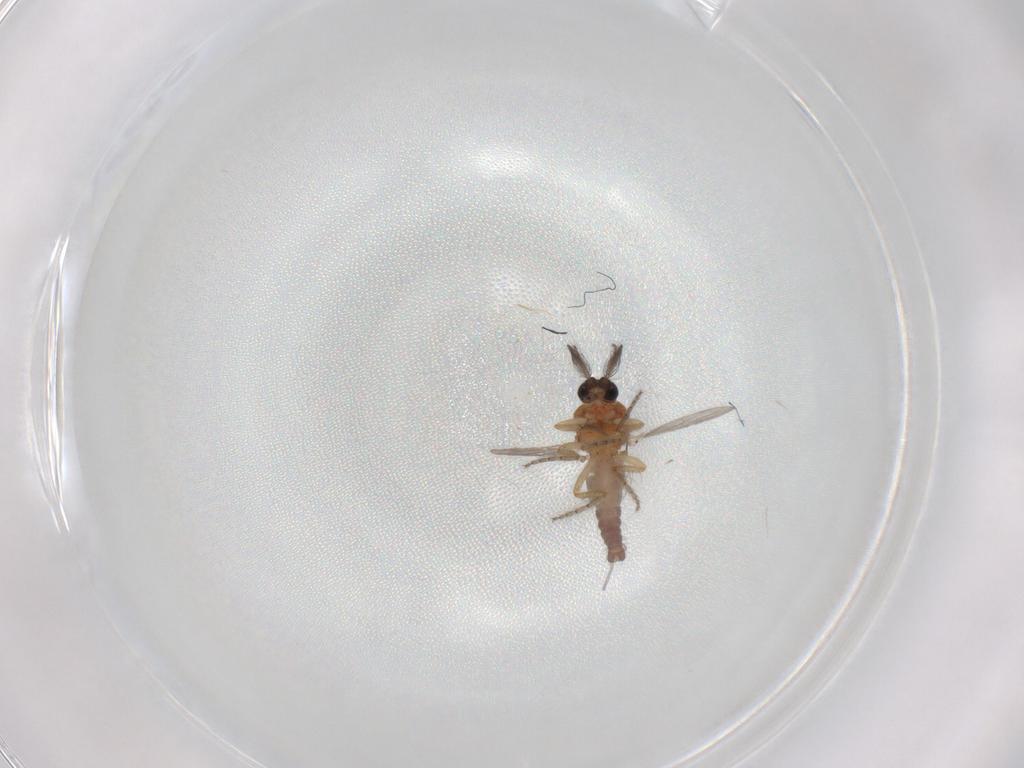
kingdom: Animalia
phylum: Arthropoda
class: Insecta
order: Diptera
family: Ceratopogonidae
